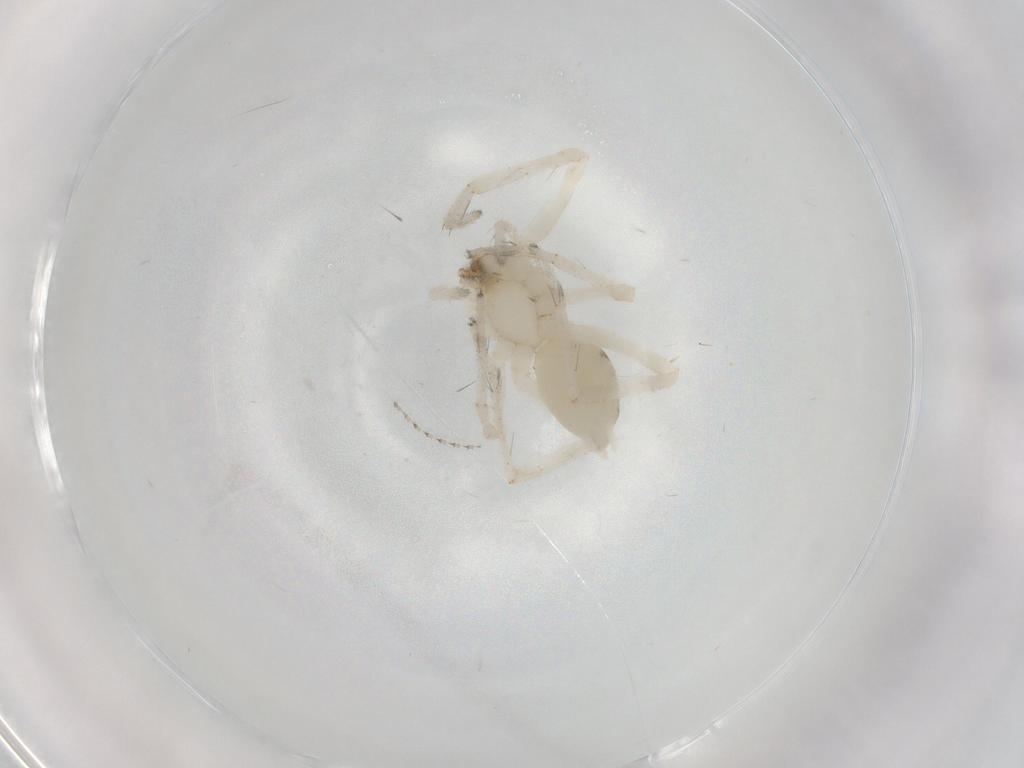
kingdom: Animalia
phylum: Arthropoda
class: Arachnida
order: Araneae
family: Anyphaenidae
